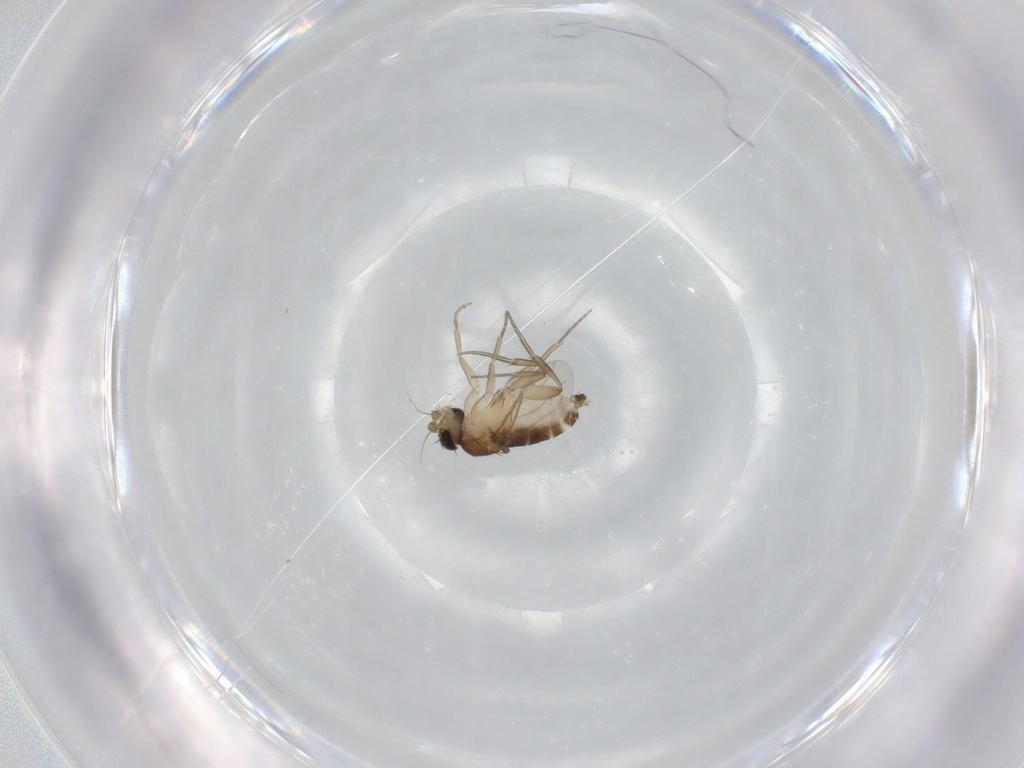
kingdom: Animalia
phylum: Arthropoda
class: Insecta
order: Diptera
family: Phoridae
